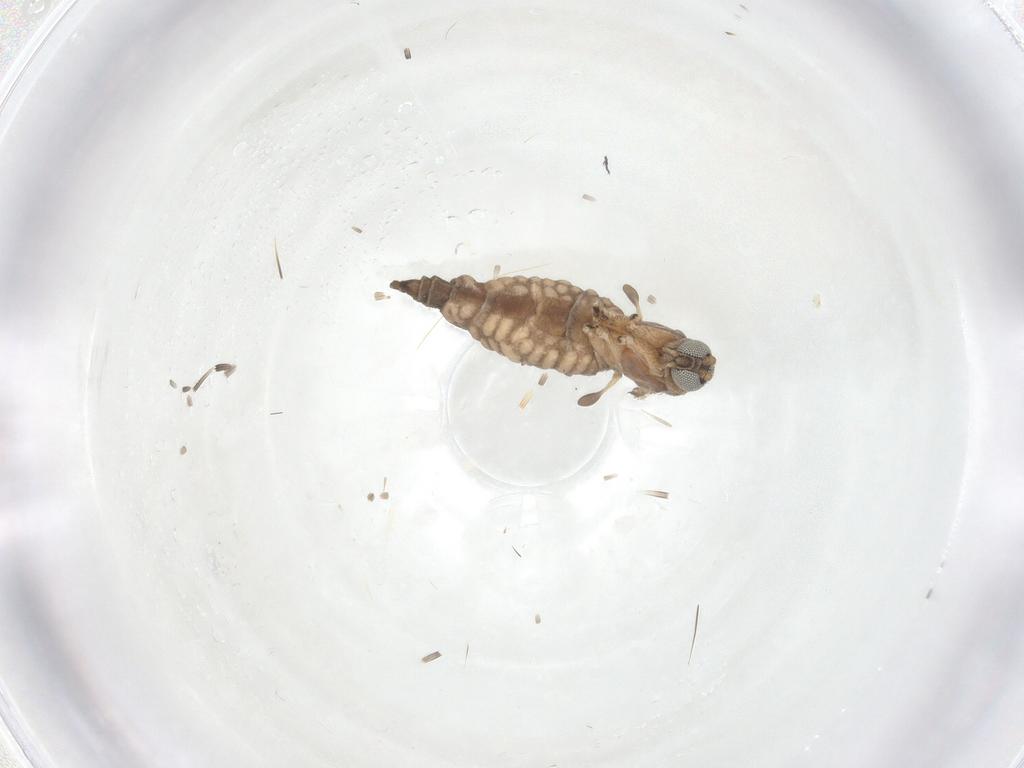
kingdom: Animalia
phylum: Arthropoda
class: Insecta
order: Diptera
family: Sciaridae
